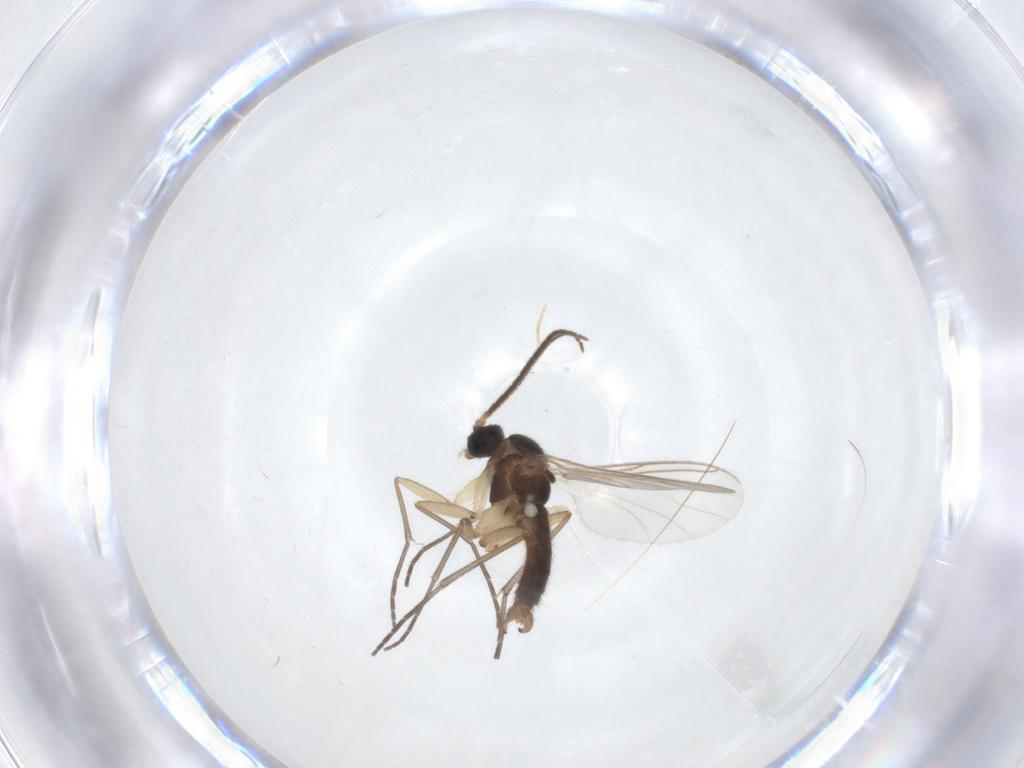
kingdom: Animalia
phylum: Arthropoda
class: Insecta
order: Diptera
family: Sciaridae
